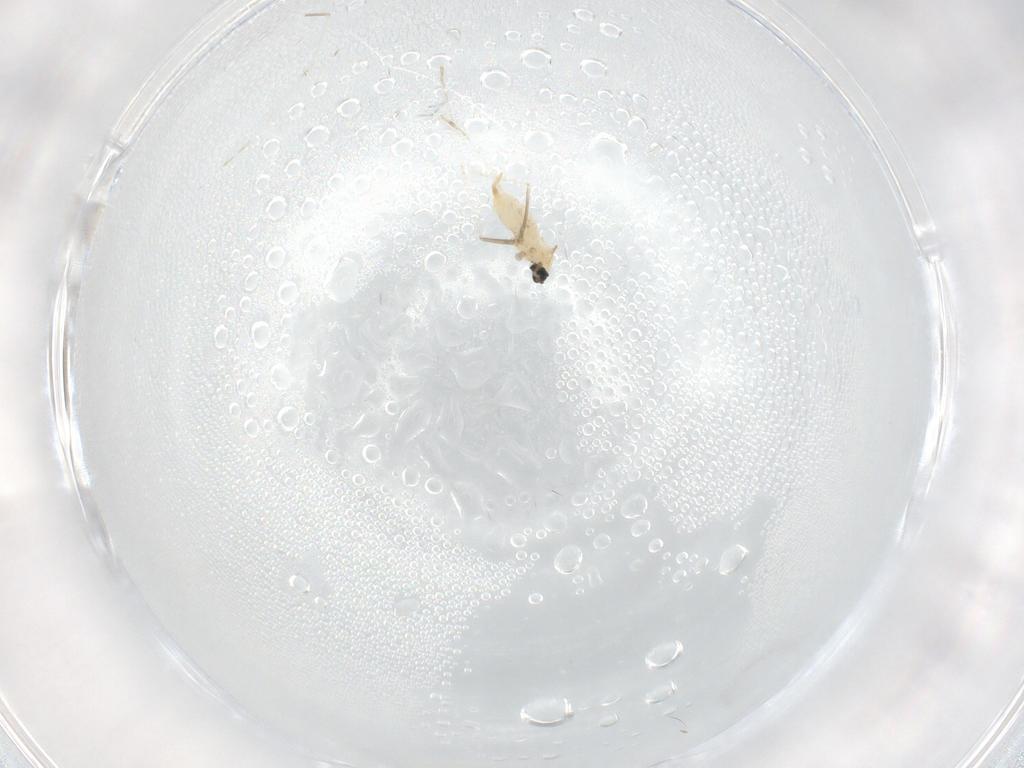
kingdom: Animalia
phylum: Arthropoda
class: Insecta
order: Diptera
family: Cecidomyiidae
